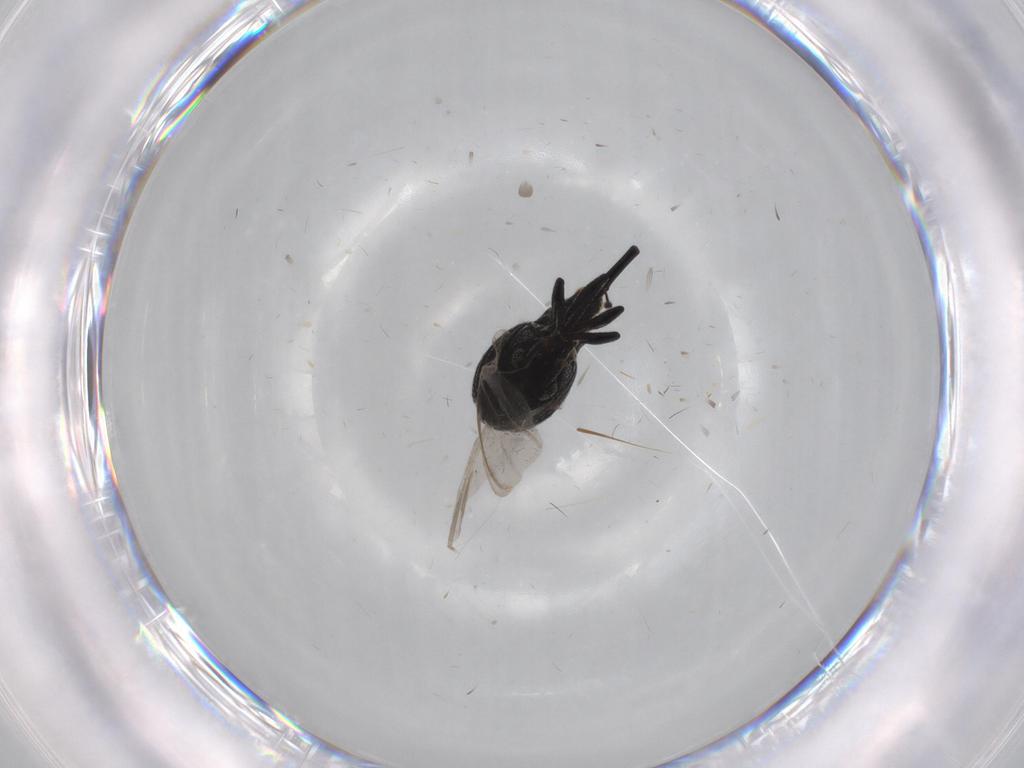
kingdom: Animalia
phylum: Arthropoda
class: Insecta
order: Coleoptera
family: Brentidae
